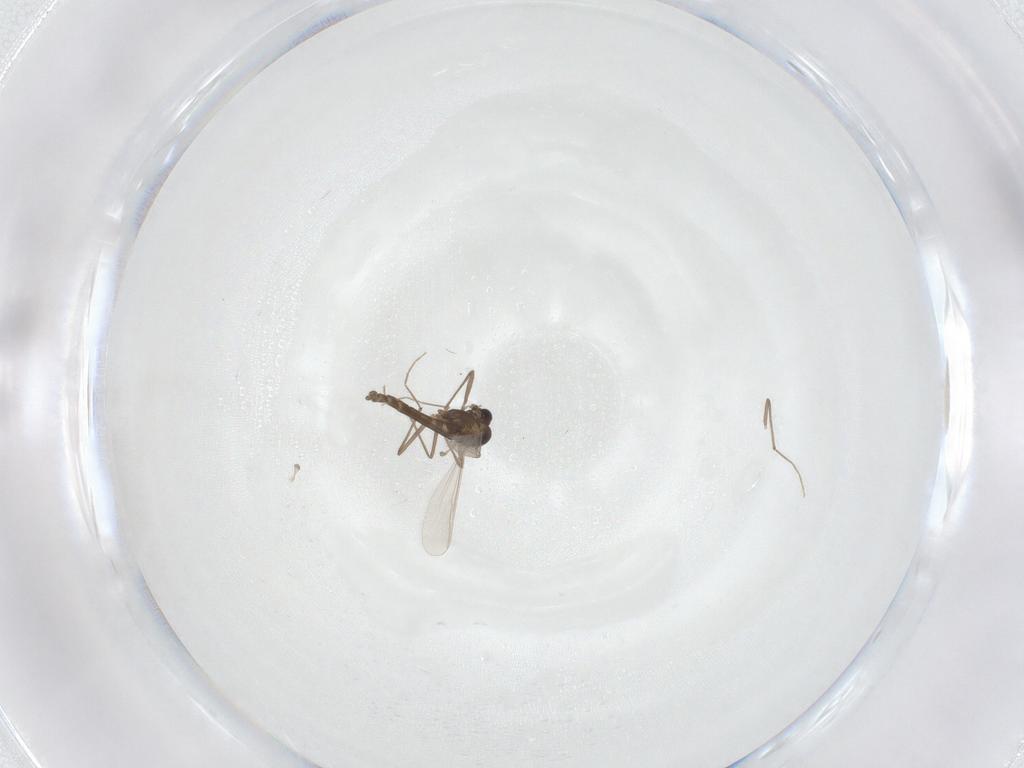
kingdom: Animalia
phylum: Arthropoda
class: Insecta
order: Diptera
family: Chironomidae
